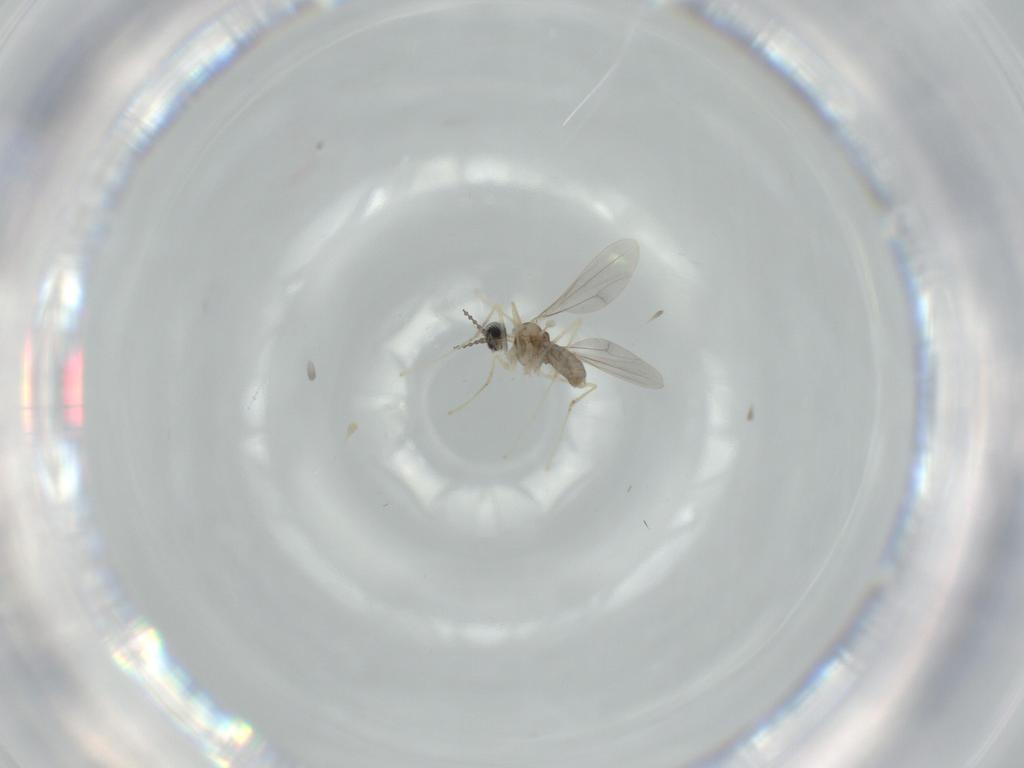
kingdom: Animalia
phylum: Arthropoda
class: Insecta
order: Diptera
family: Cecidomyiidae
